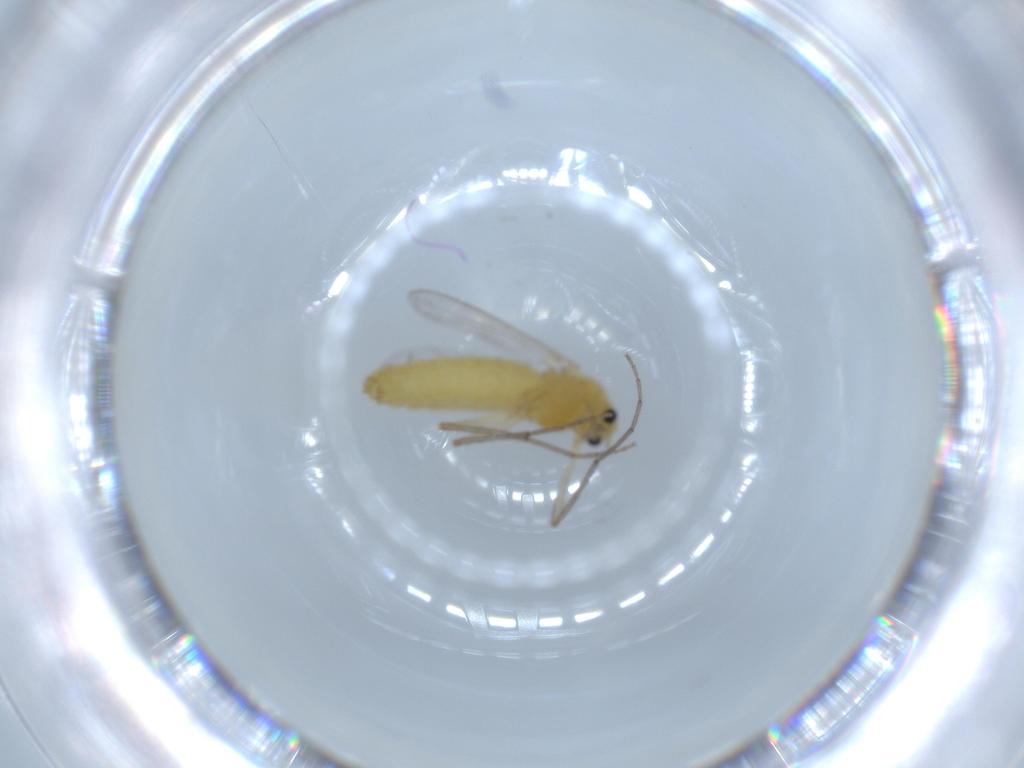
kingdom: Animalia
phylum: Arthropoda
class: Insecta
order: Diptera
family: Chironomidae
